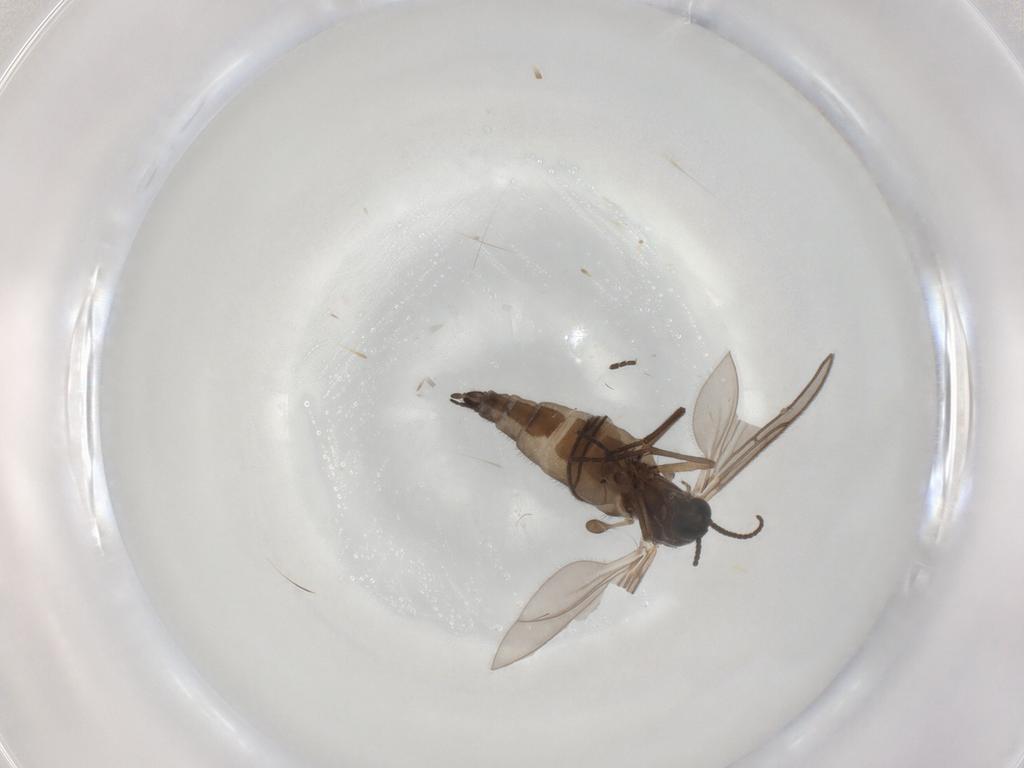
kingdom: Animalia
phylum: Arthropoda
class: Insecta
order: Diptera
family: Sciaridae
